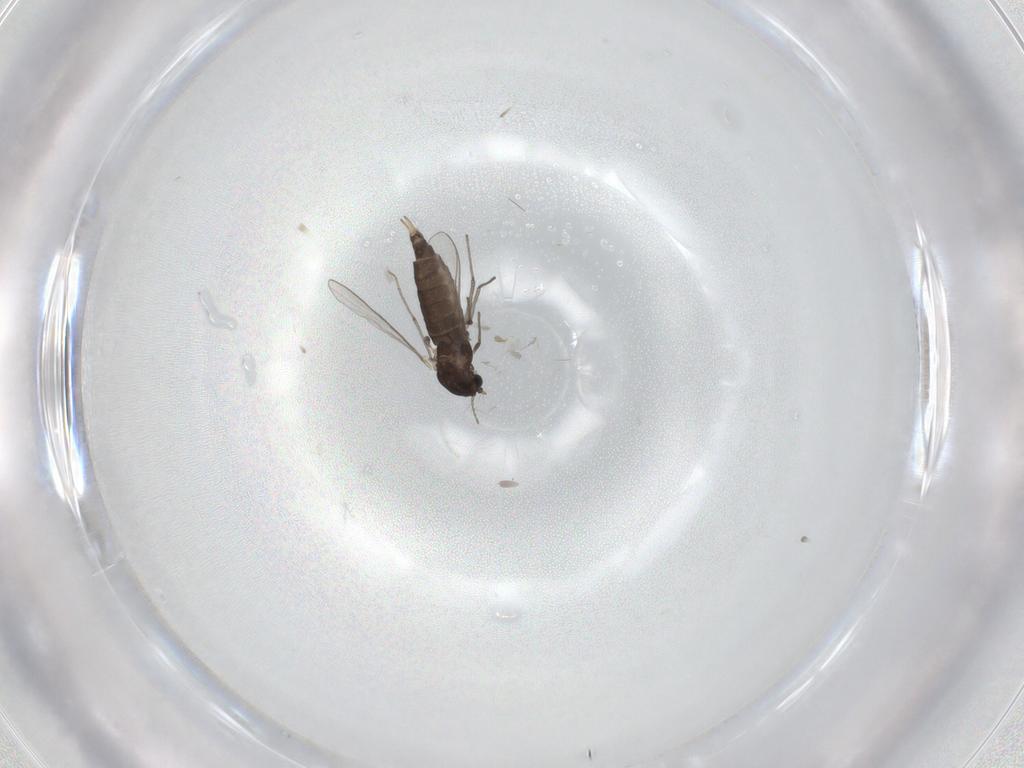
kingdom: Animalia
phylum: Arthropoda
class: Insecta
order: Diptera
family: Chironomidae
